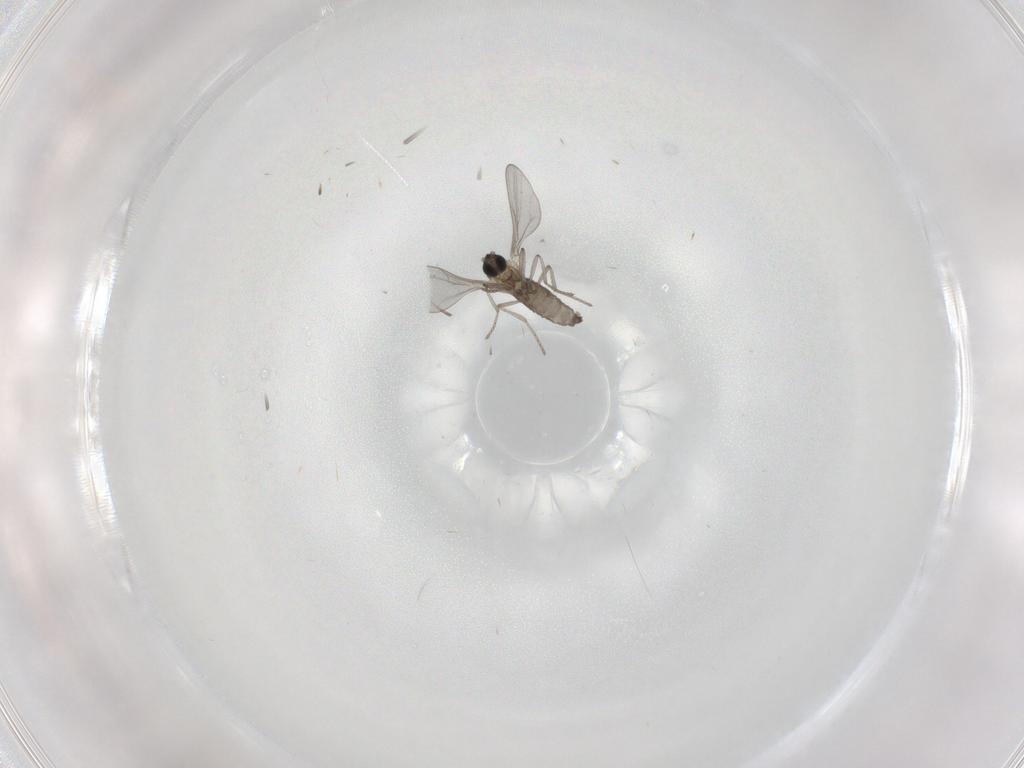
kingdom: Animalia
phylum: Arthropoda
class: Insecta
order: Diptera
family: Cecidomyiidae
